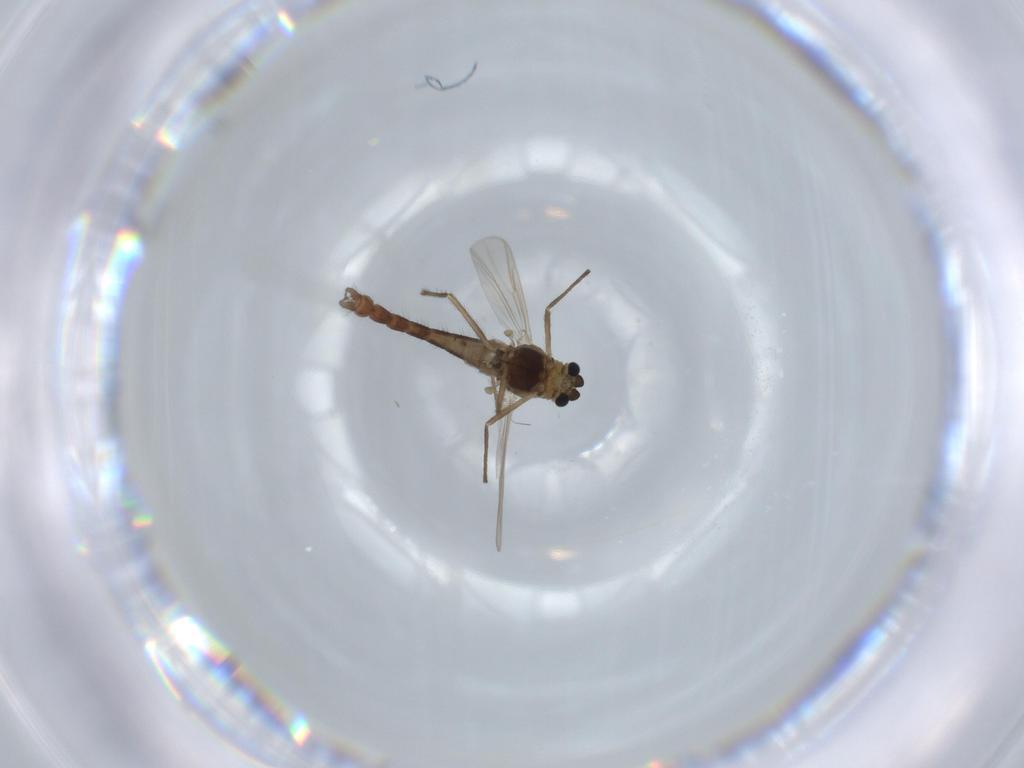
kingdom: Animalia
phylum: Arthropoda
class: Insecta
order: Diptera
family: Chironomidae
